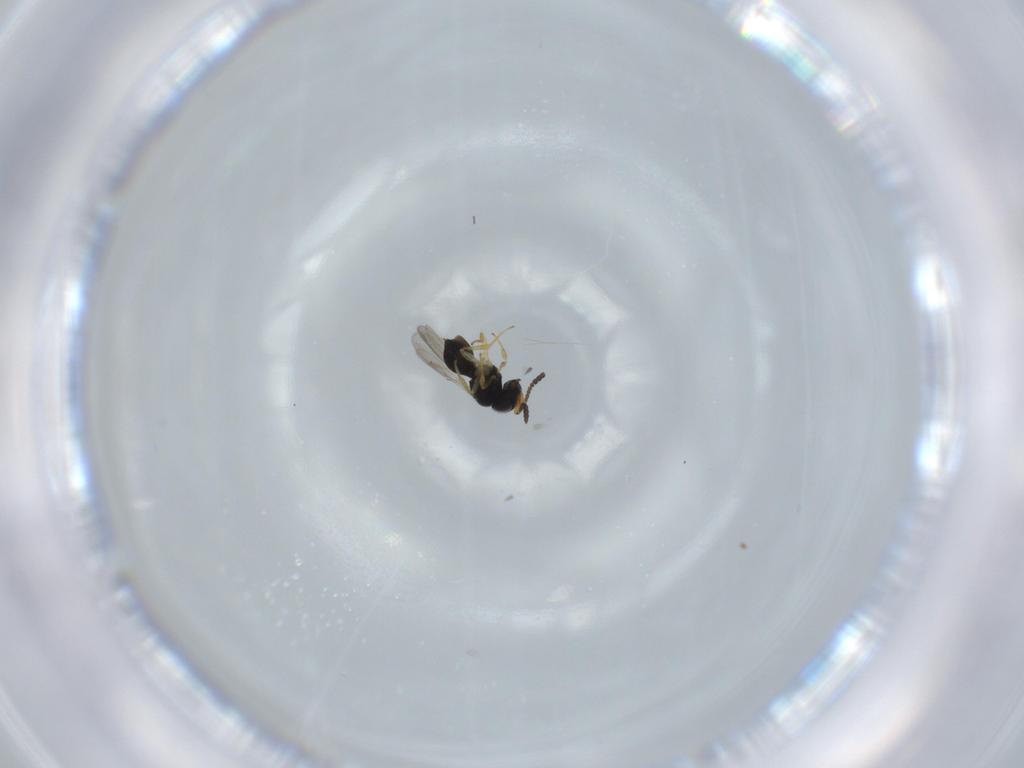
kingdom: Animalia
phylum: Arthropoda
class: Insecta
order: Hymenoptera
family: Scelionidae
